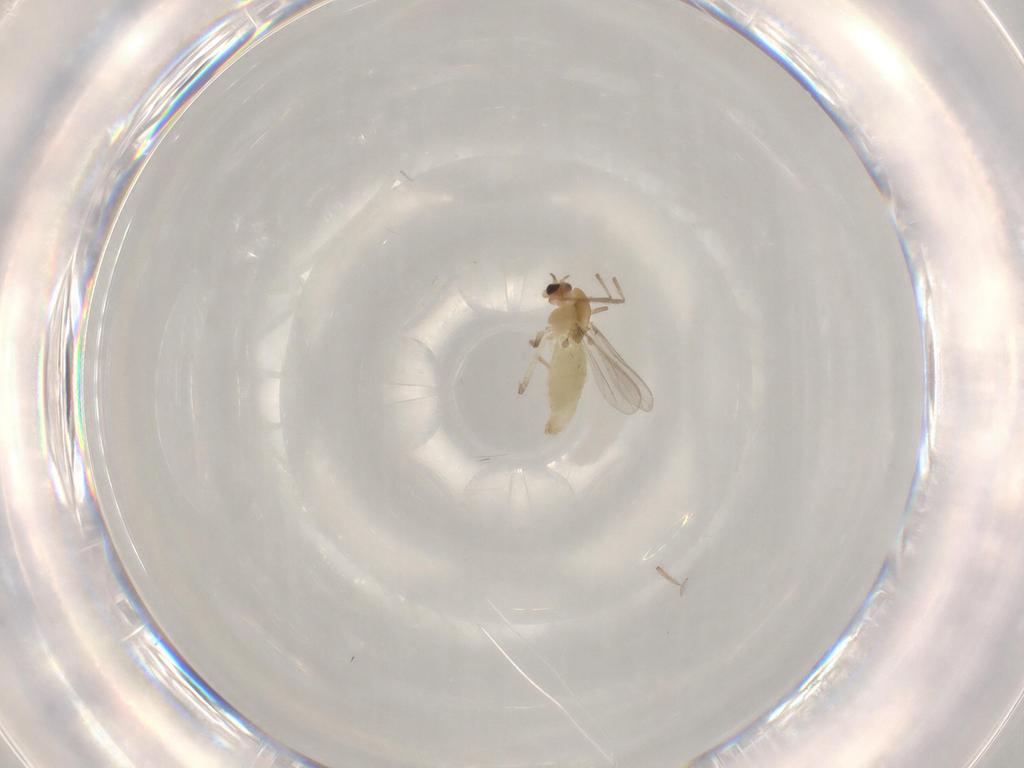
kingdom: Animalia
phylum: Arthropoda
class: Insecta
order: Diptera
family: Chironomidae
